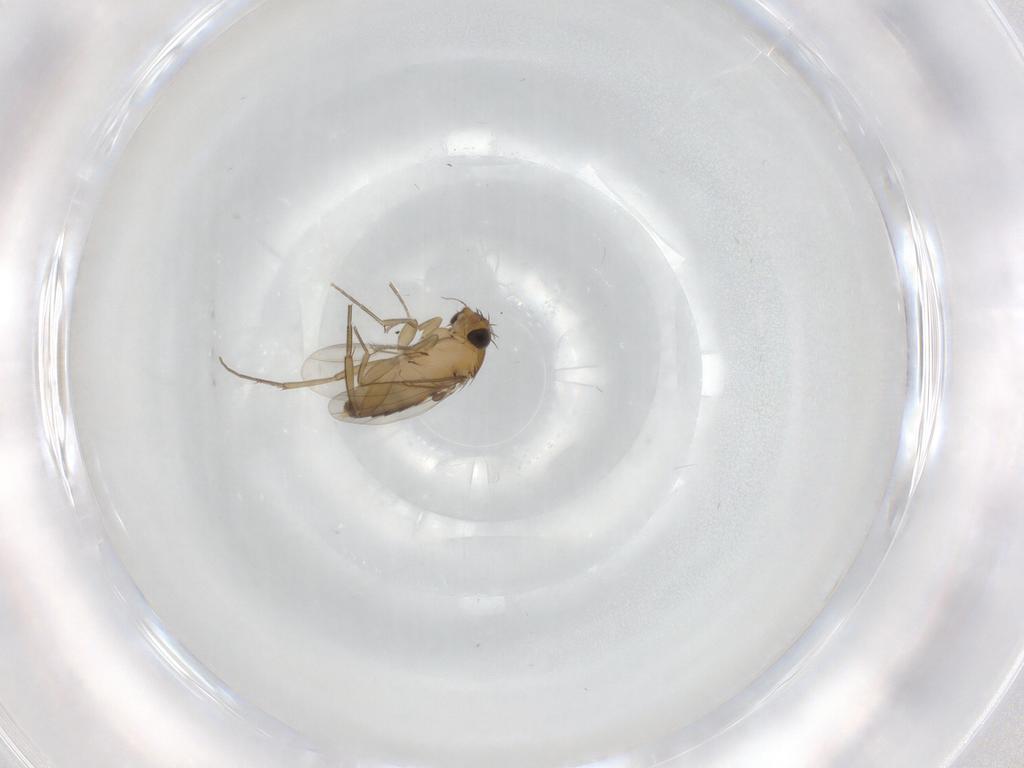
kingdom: Animalia
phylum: Arthropoda
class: Insecta
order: Diptera
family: Phoridae
